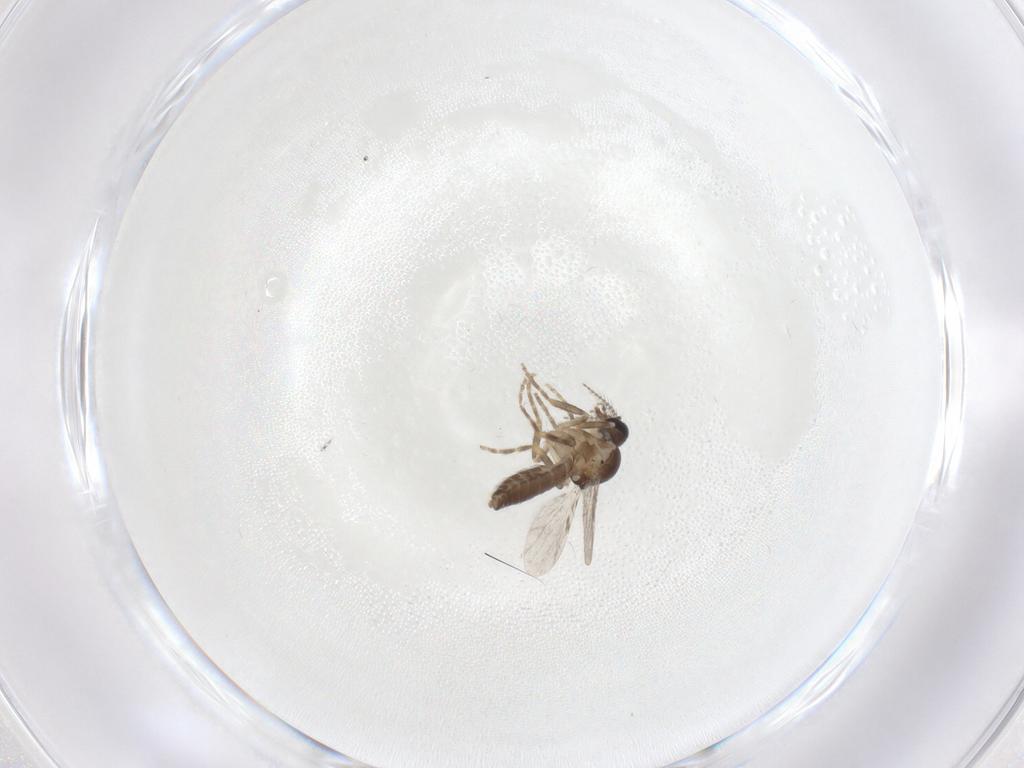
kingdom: Animalia
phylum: Arthropoda
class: Insecta
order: Diptera
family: Ceratopogonidae
